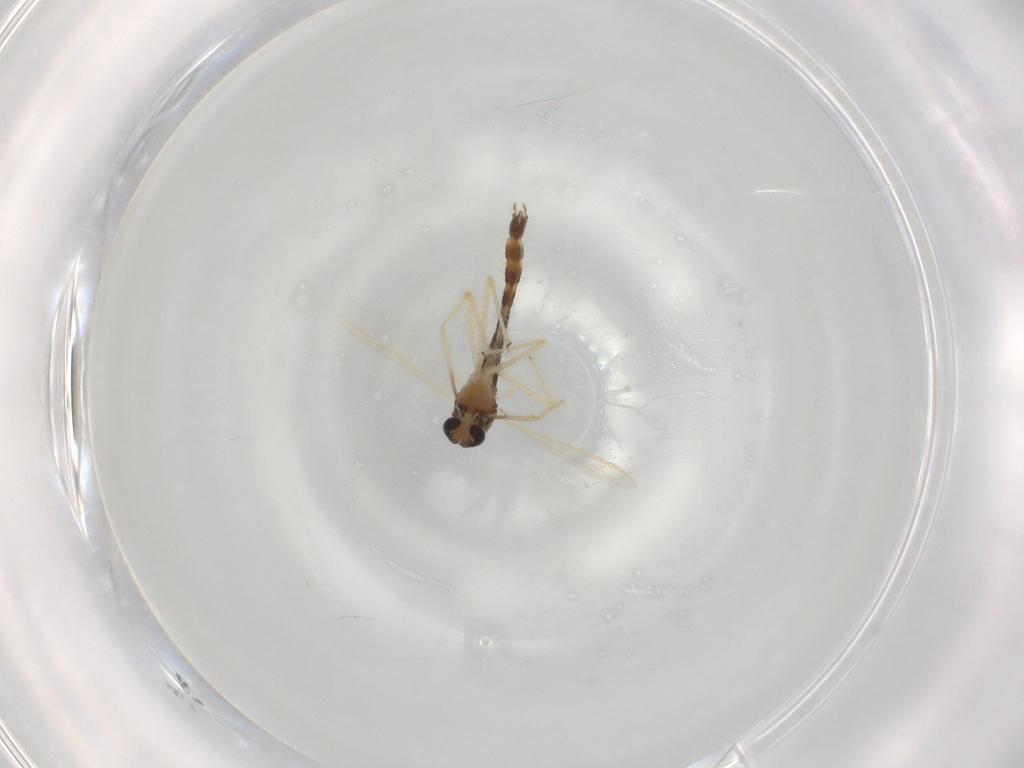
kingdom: Animalia
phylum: Arthropoda
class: Insecta
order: Diptera
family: Chironomidae
